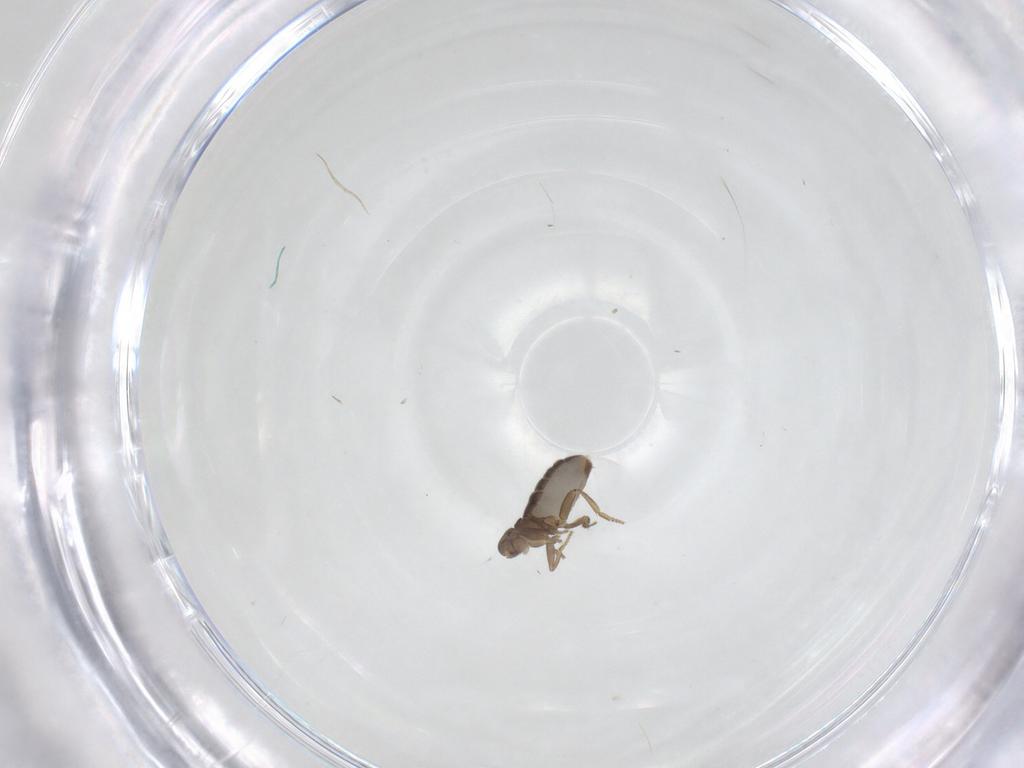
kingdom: Animalia
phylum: Arthropoda
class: Insecta
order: Diptera
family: Phoridae
